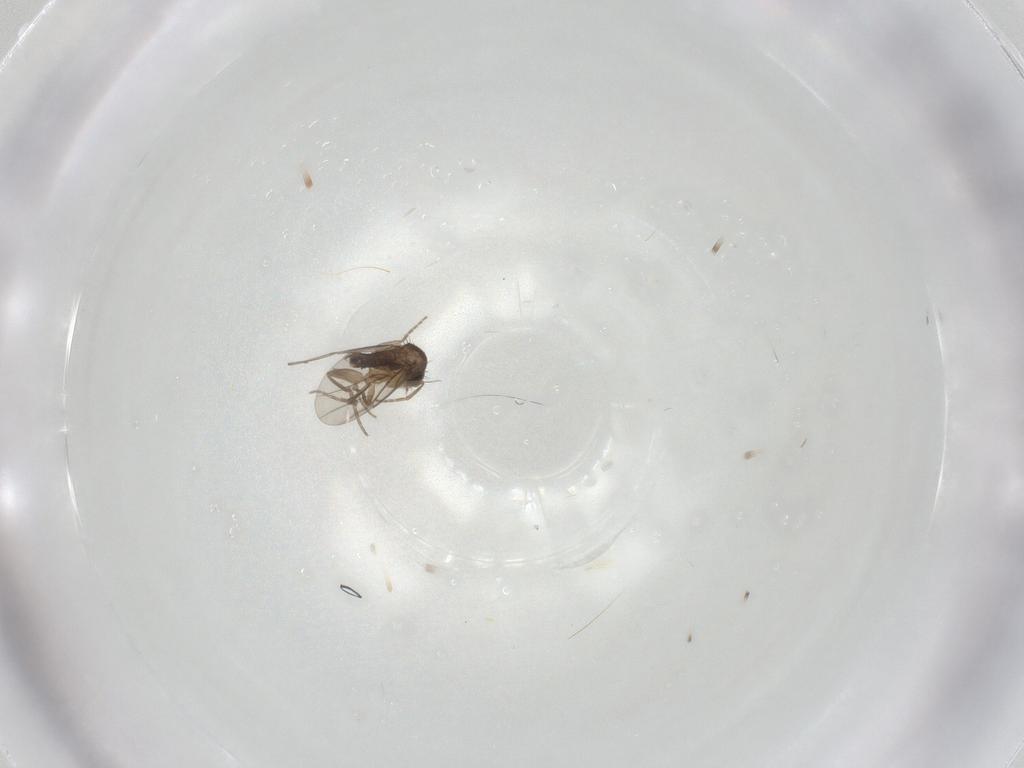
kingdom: Animalia
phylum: Arthropoda
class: Insecta
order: Diptera
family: Phoridae
